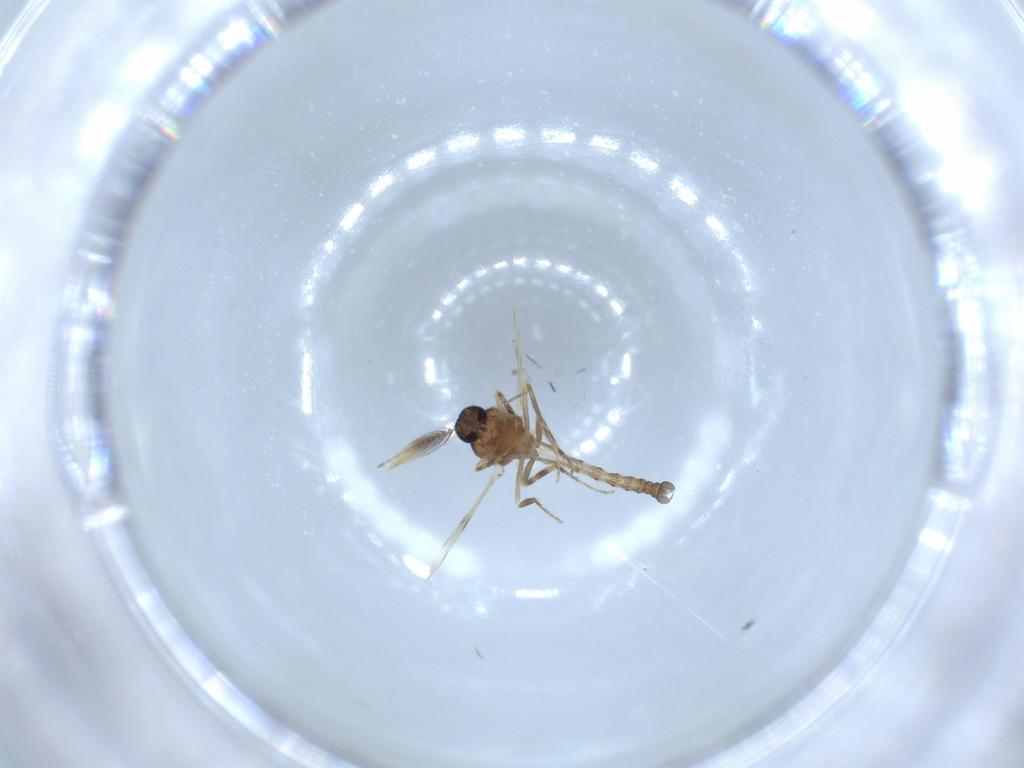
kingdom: Animalia
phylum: Arthropoda
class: Insecta
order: Diptera
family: Ceratopogonidae
